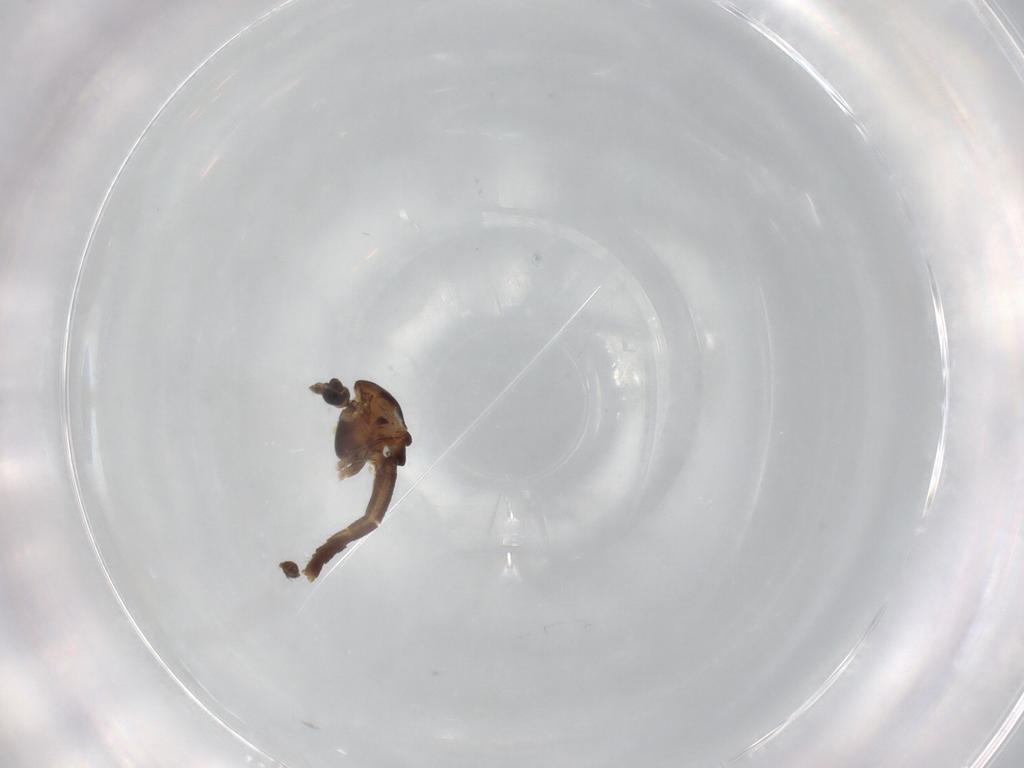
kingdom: Animalia
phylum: Arthropoda
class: Insecta
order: Diptera
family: Chironomidae
